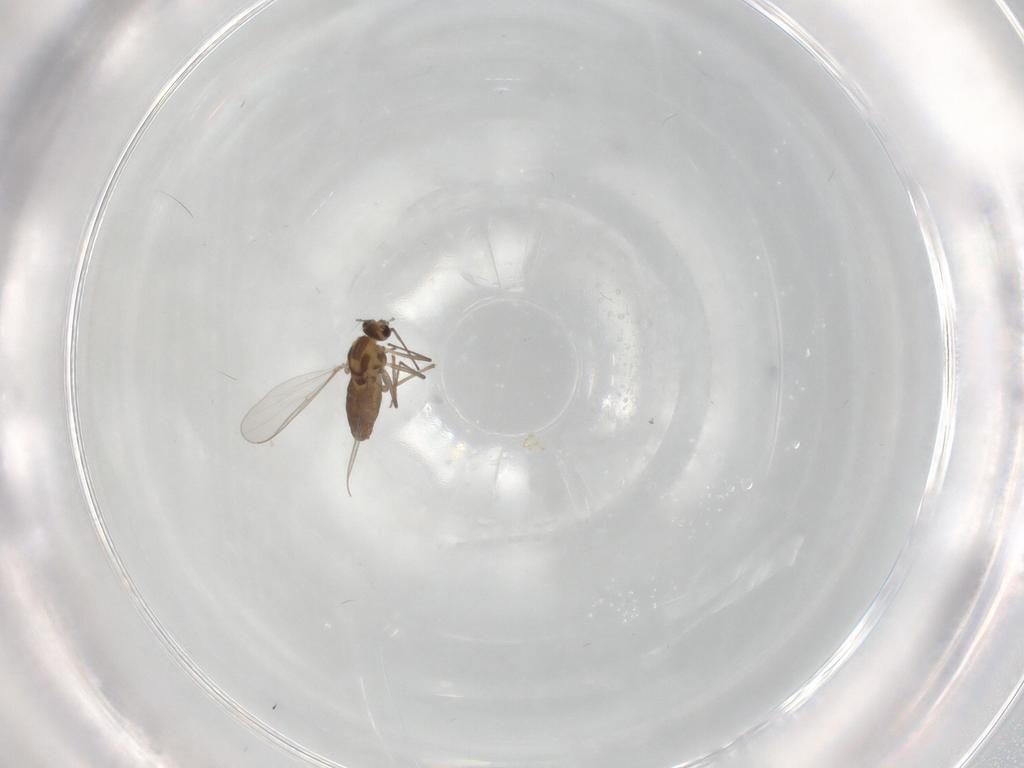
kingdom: Animalia
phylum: Arthropoda
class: Insecta
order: Diptera
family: Chironomidae
